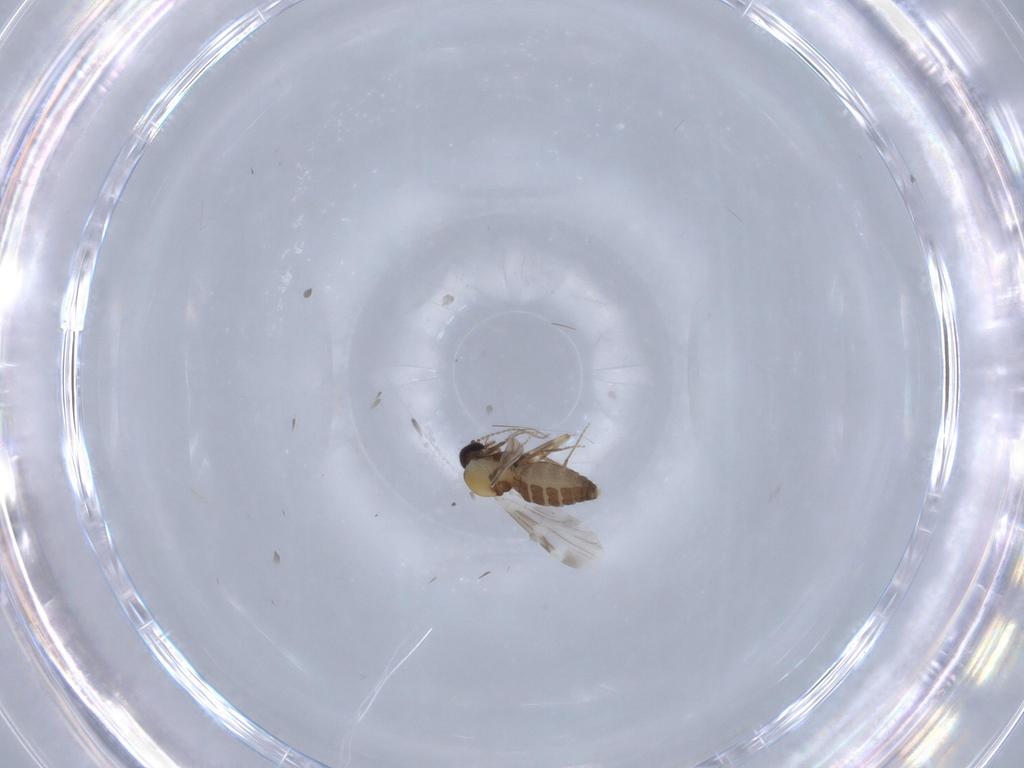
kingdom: Animalia
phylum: Arthropoda
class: Insecta
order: Diptera
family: Ceratopogonidae
